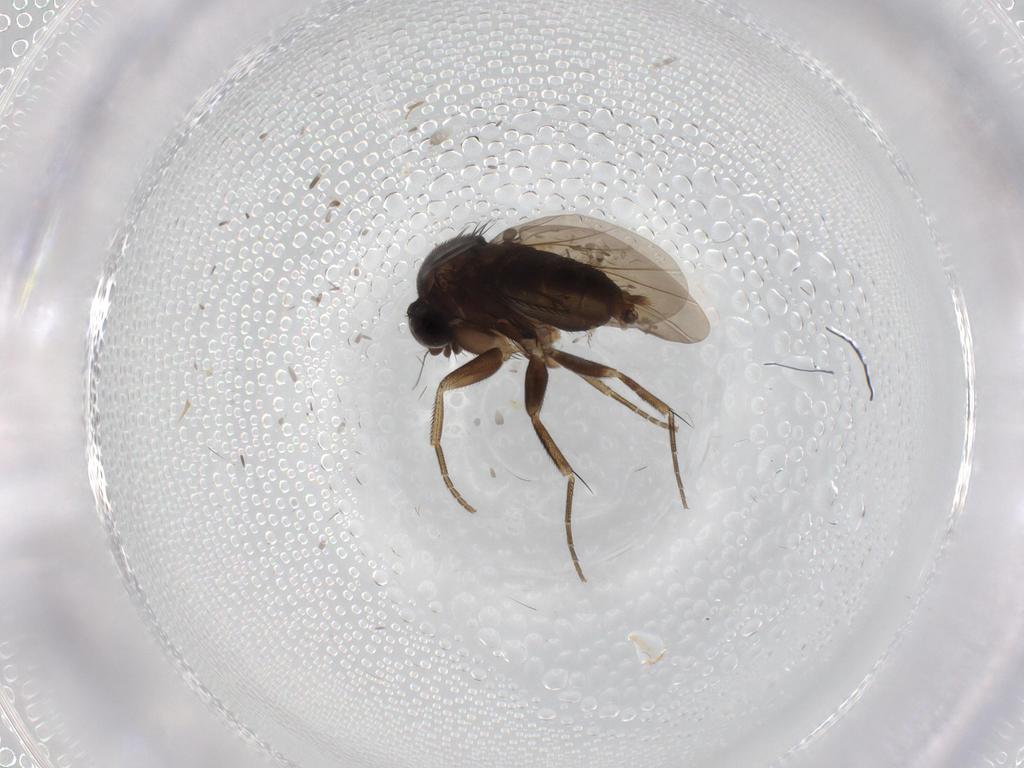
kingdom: Animalia
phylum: Arthropoda
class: Insecta
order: Diptera
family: Phoridae
